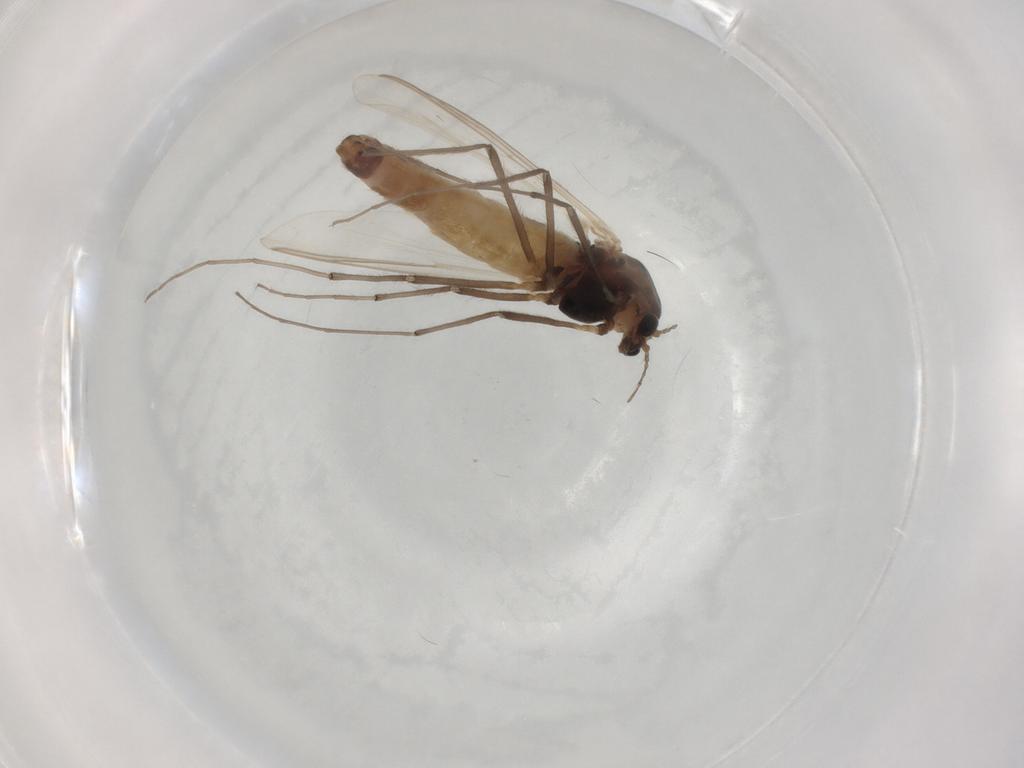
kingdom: Animalia
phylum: Arthropoda
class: Insecta
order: Diptera
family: Chironomidae
